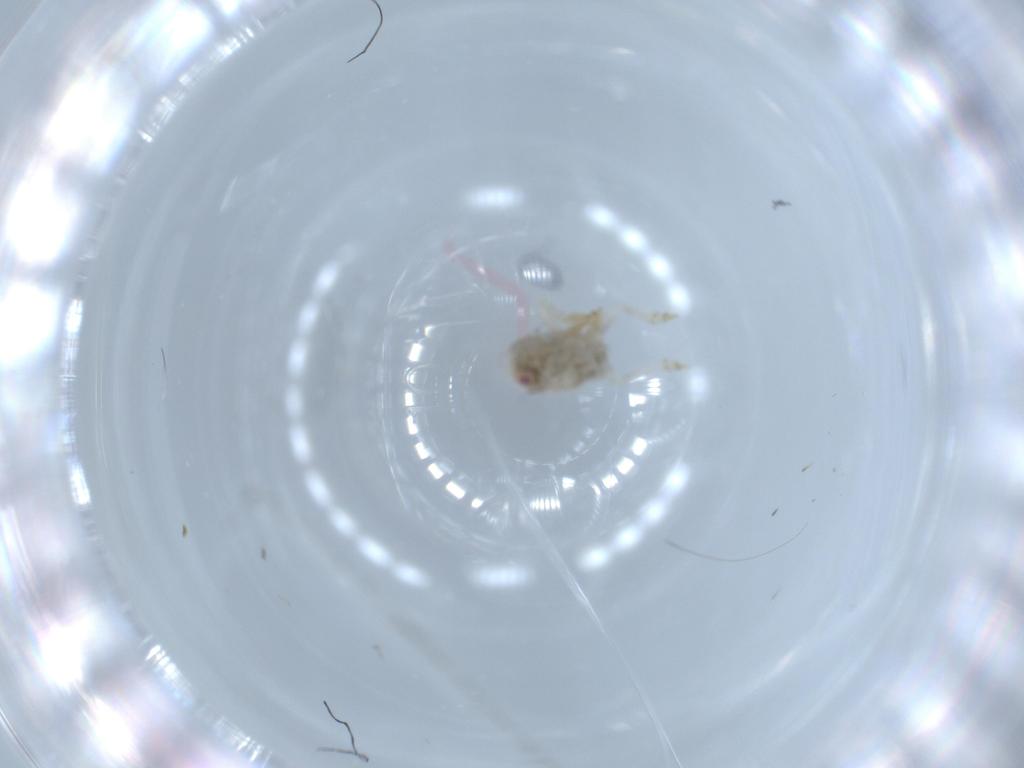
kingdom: Animalia
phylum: Arthropoda
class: Insecta
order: Hemiptera
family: Acanaloniidae
